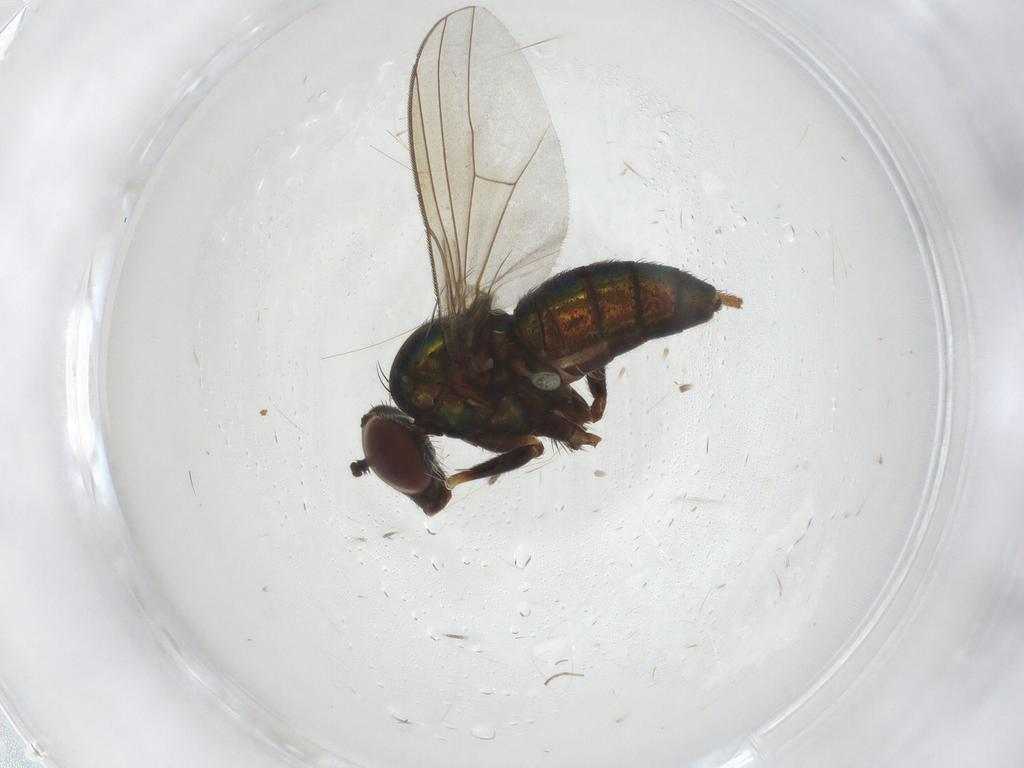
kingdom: Animalia
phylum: Arthropoda
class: Insecta
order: Diptera
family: Dolichopodidae
